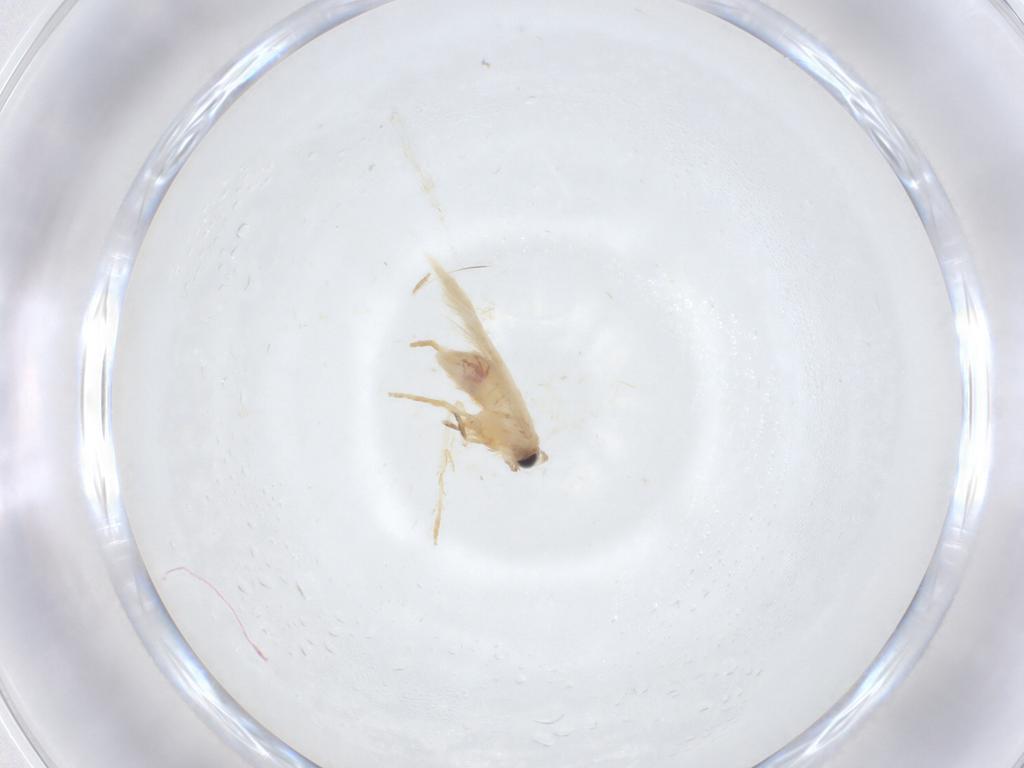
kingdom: Animalia
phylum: Arthropoda
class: Insecta
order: Lepidoptera
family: Nepticulidae
